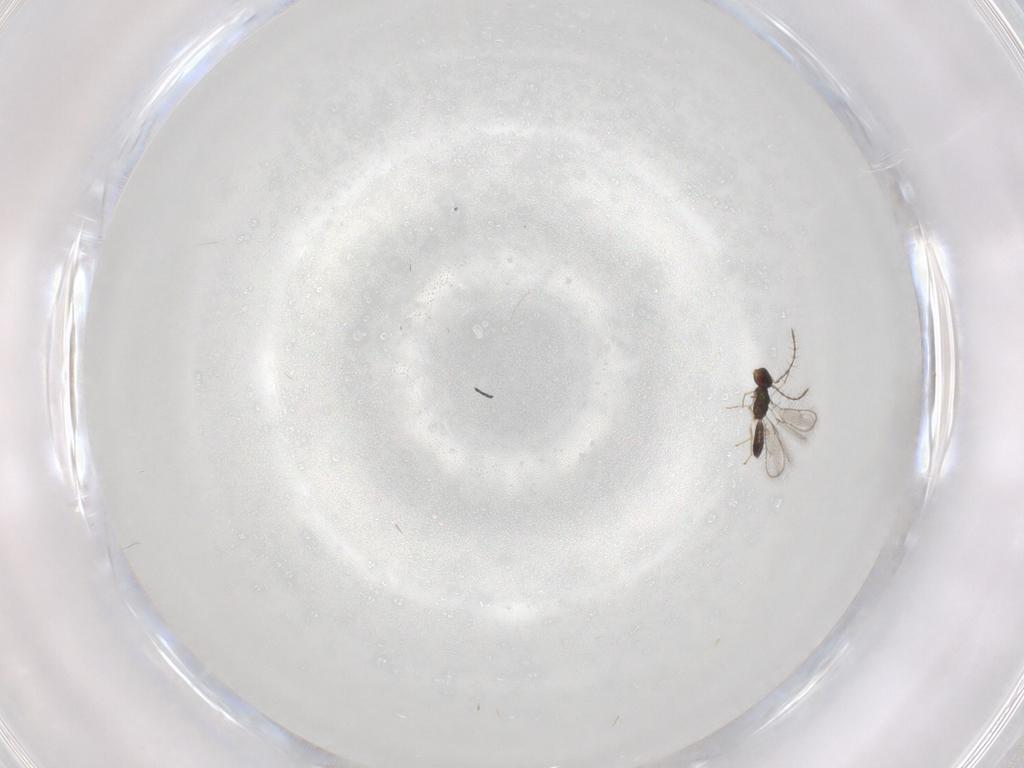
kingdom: Animalia
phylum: Arthropoda
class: Insecta
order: Hymenoptera
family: Pteromalidae
